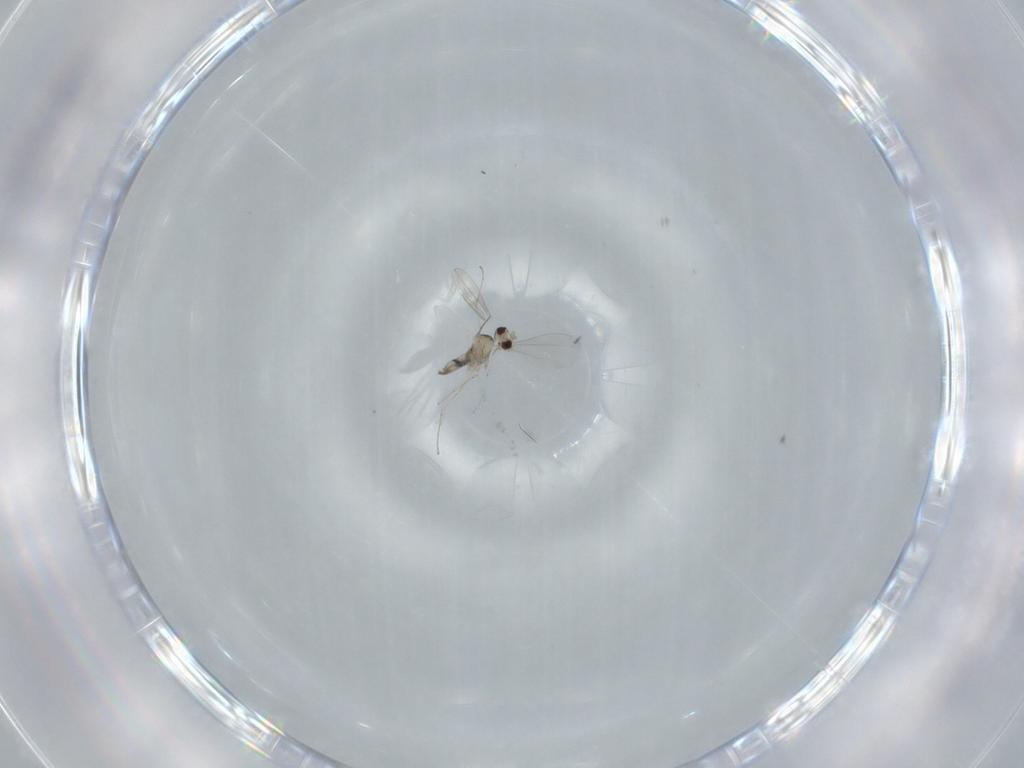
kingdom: Animalia
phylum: Arthropoda
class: Insecta
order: Diptera
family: Cecidomyiidae
